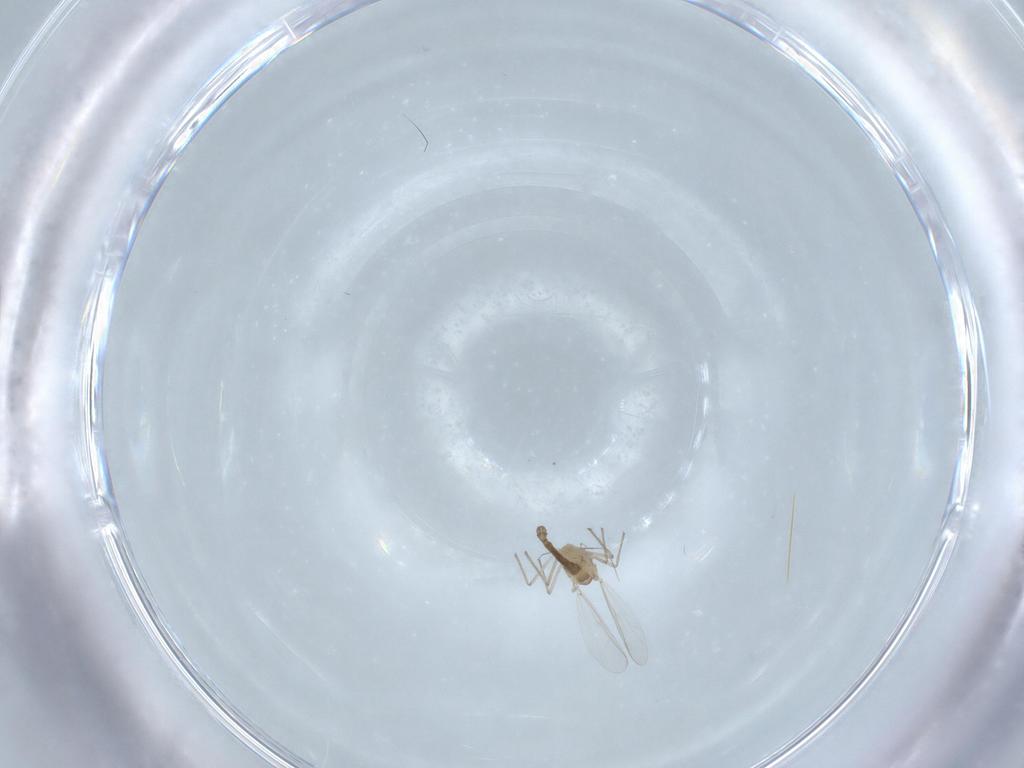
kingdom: Animalia
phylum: Arthropoda
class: Insecta
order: Diptera
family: Chironomidae
